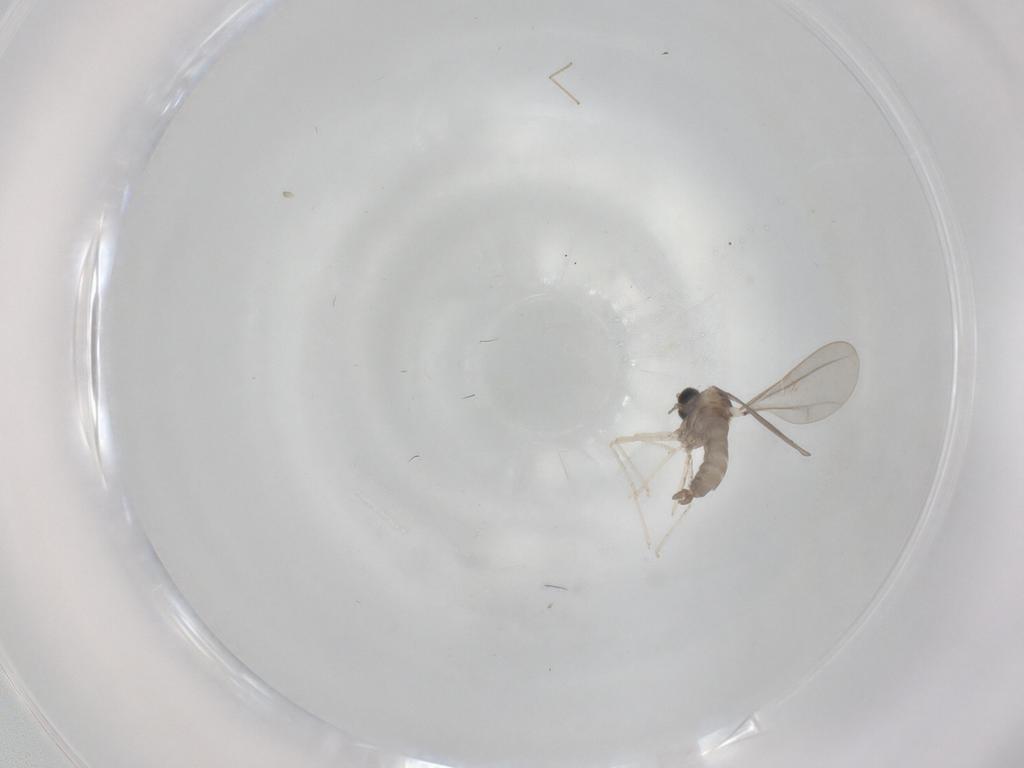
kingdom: Animalia
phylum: Arthropoda
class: Insecta
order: Diptera
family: Cecidomyiidae
